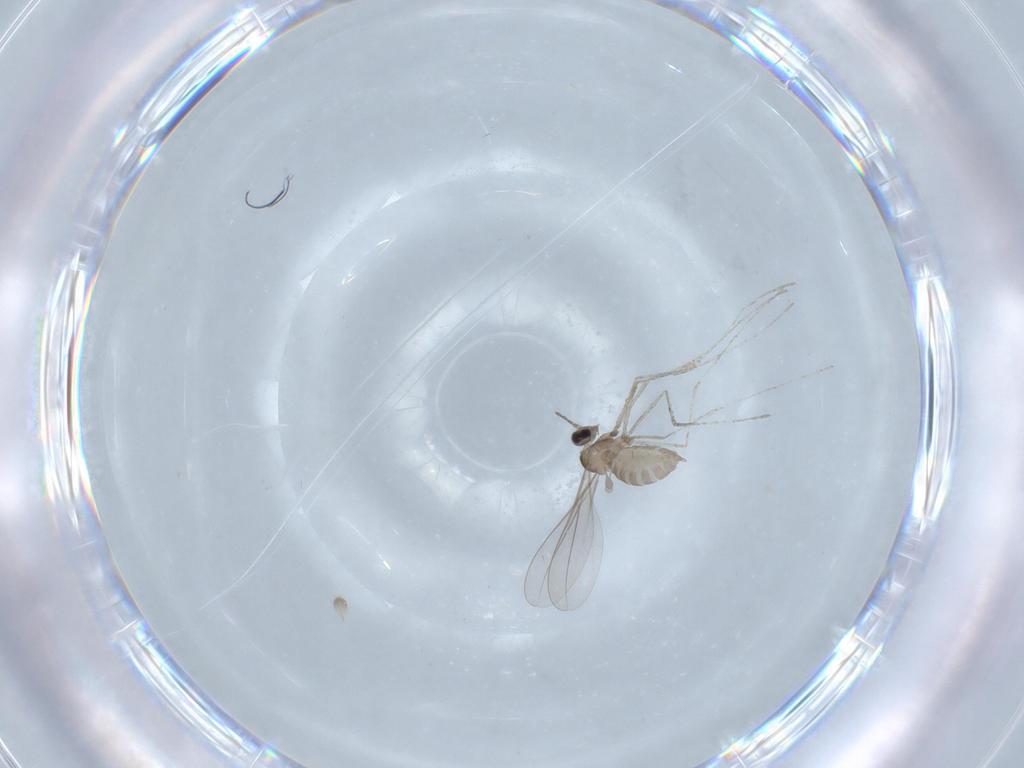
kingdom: Animalia
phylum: Arthropoda
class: Insecta
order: Diptera
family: Cecidomyiidae
